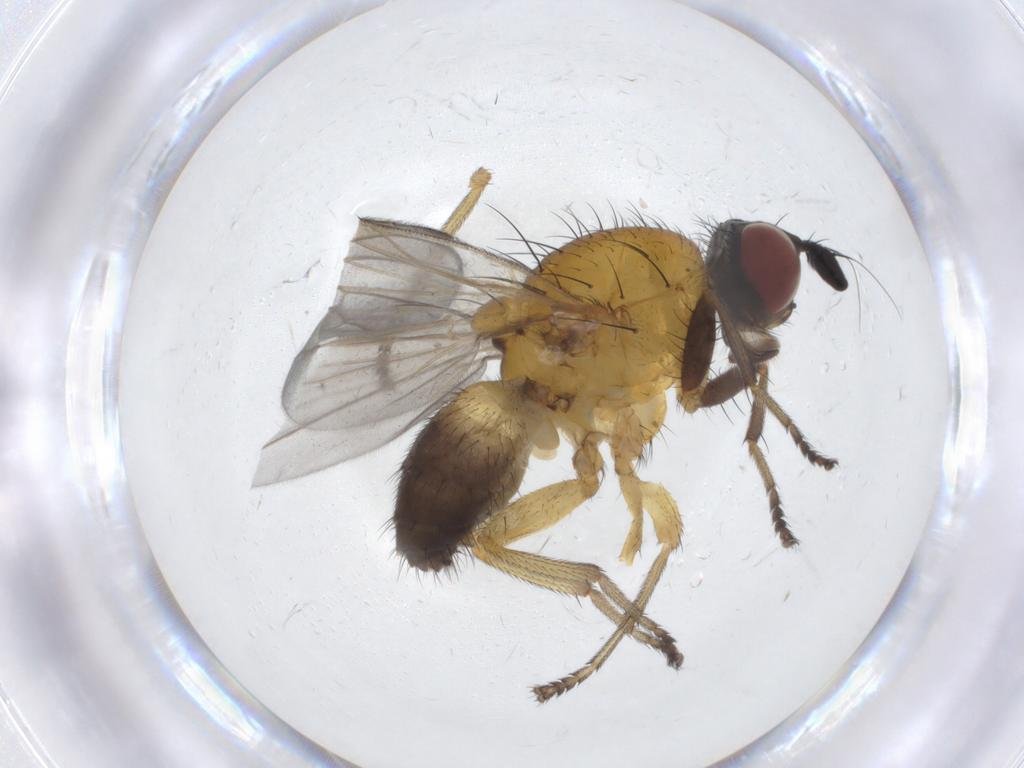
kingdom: Animalia
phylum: Arthropoda
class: Insecta
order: Diptera
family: Lauxaniidae
